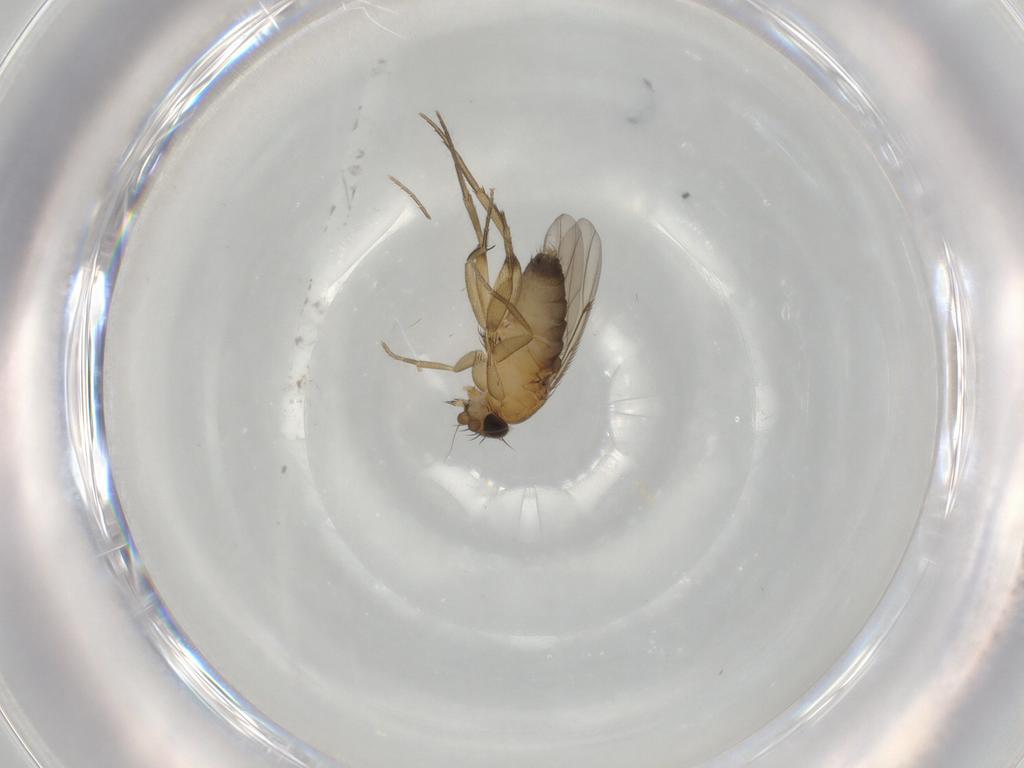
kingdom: Animalia
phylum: Arthropoda
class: Insecta
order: Diptera
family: Phoridae
